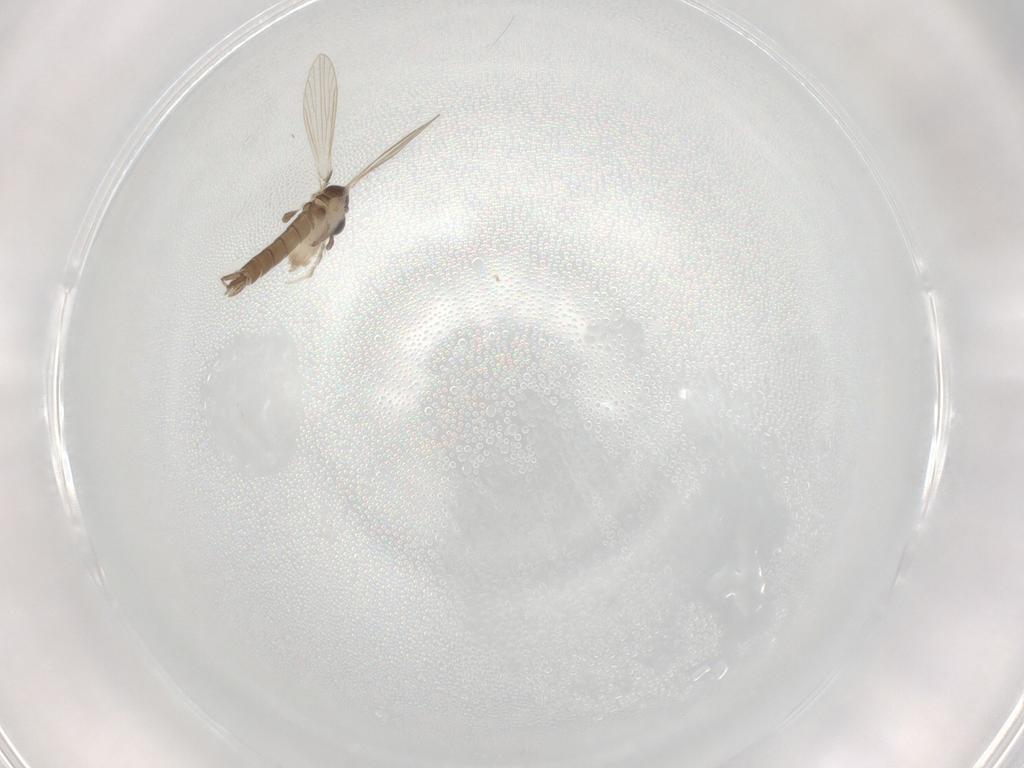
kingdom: Animalia
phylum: Arthropoda
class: Insecta
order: Diptera
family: Psychodidae
